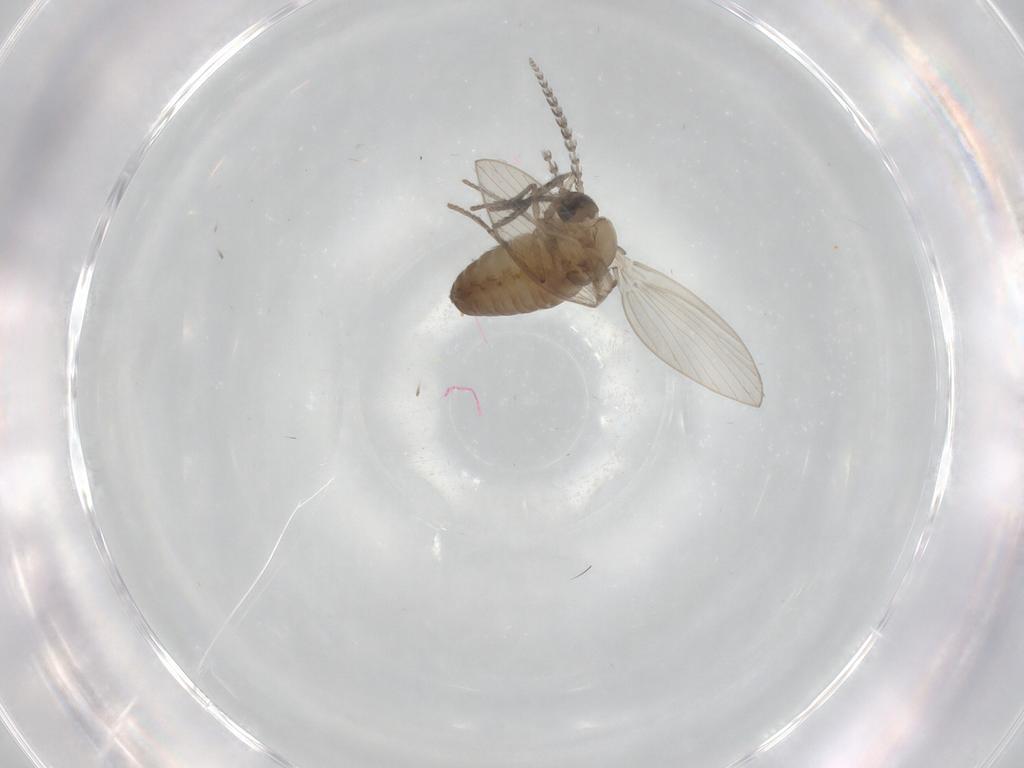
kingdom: Animalia
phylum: Arthropoda
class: Insecta
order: Diptera
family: Psychodidae
